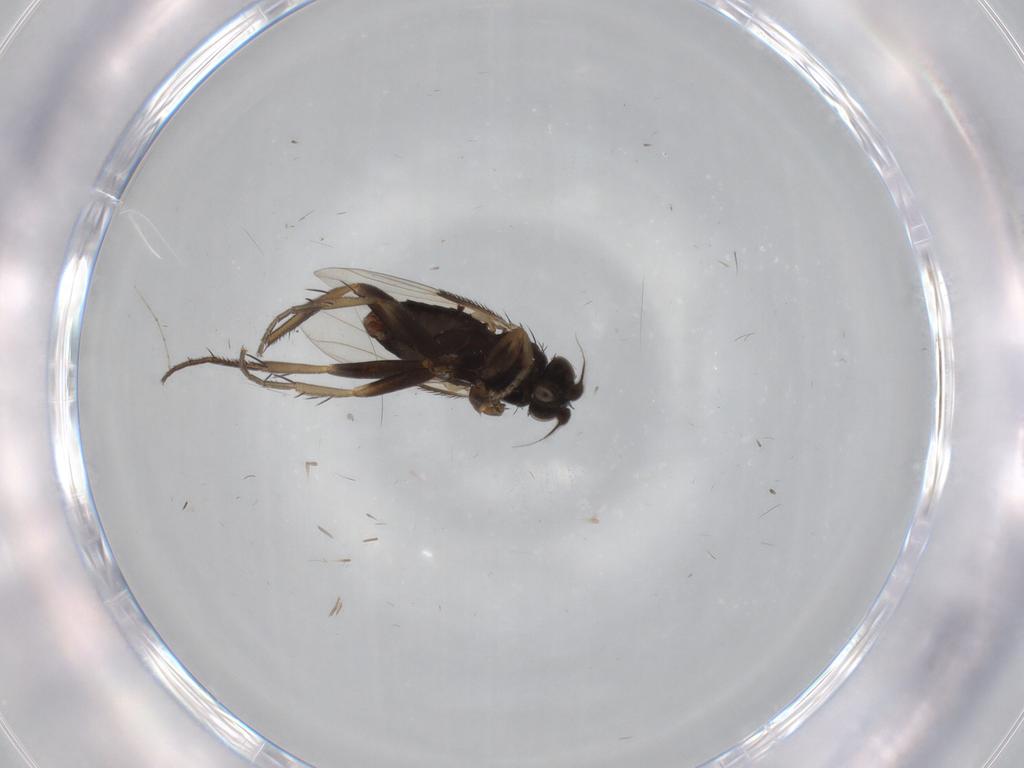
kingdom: Animalia
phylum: Arthropoda
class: Insecta
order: Diptera
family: Phoridae
